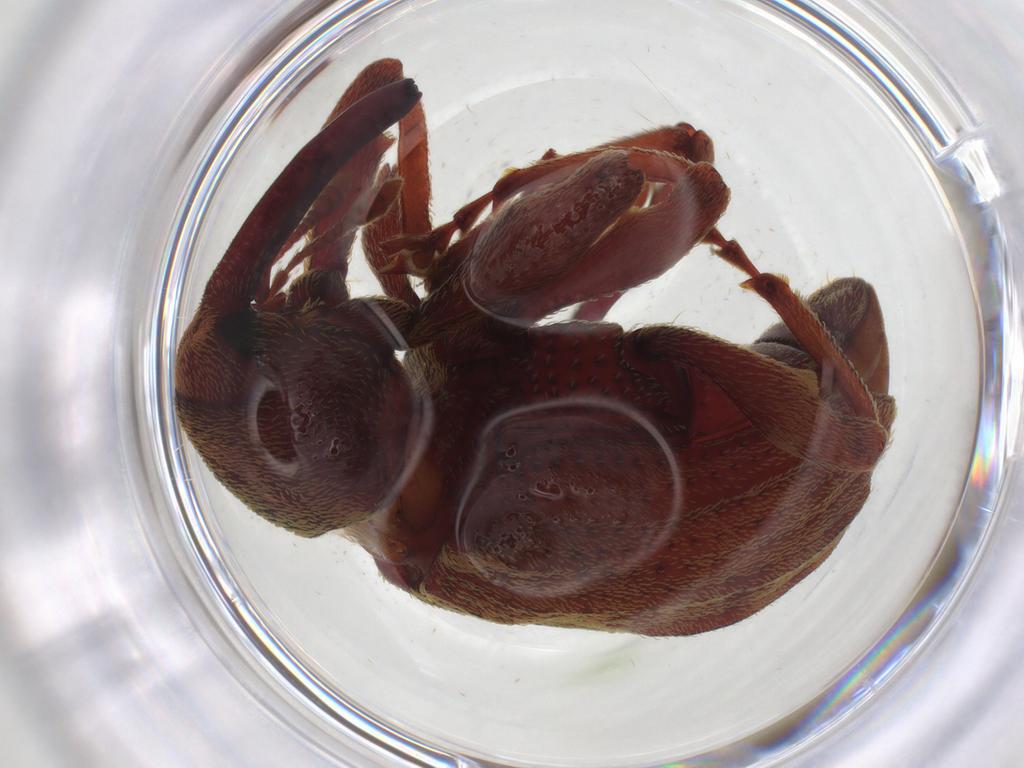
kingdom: Animalia
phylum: Arthropoda
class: Insecta
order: Coleoptera
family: Curculionidae
